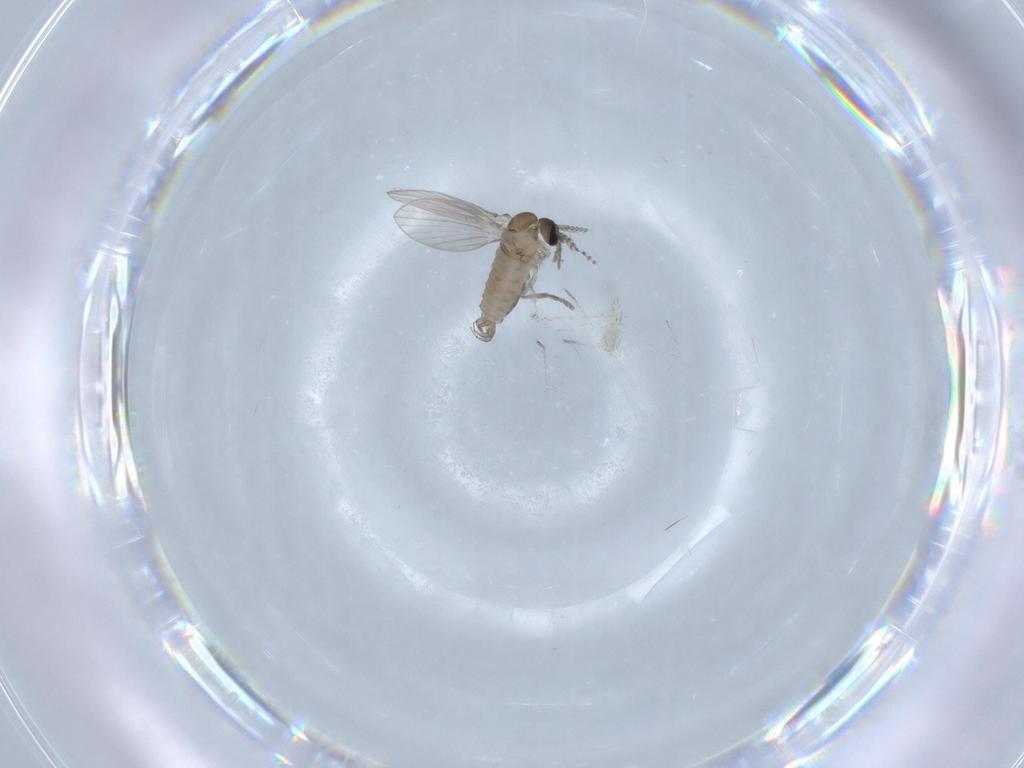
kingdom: Animalia
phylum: Arthropoda
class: Insecta
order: Diptera
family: Psychodidae
